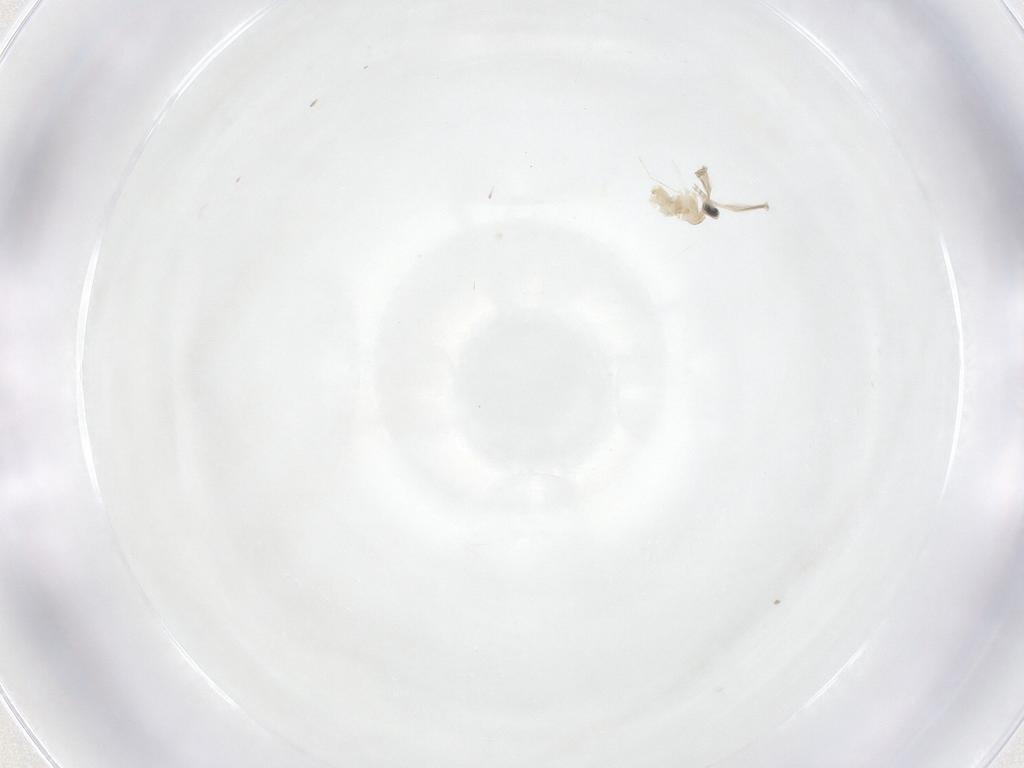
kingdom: Animalia
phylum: Arthropoda
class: Insecta
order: Diptera
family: Cecidomyiidae
